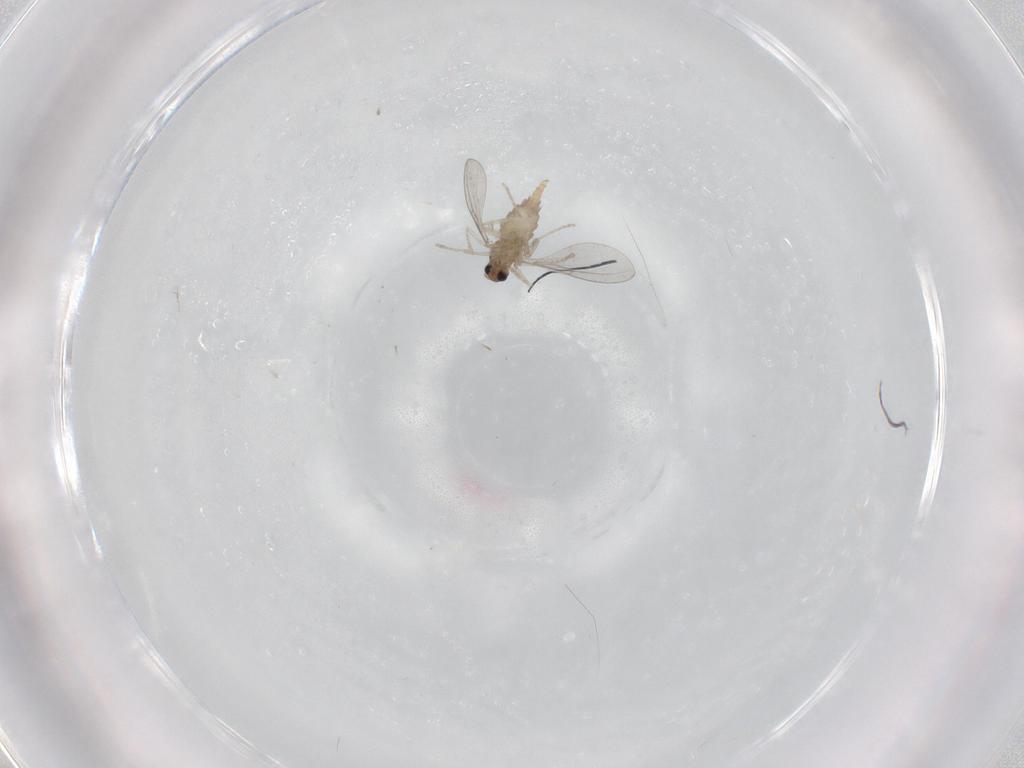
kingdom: Animalia
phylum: Arthropoda
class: Insecta
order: Diptera
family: Cecidomyiidae
